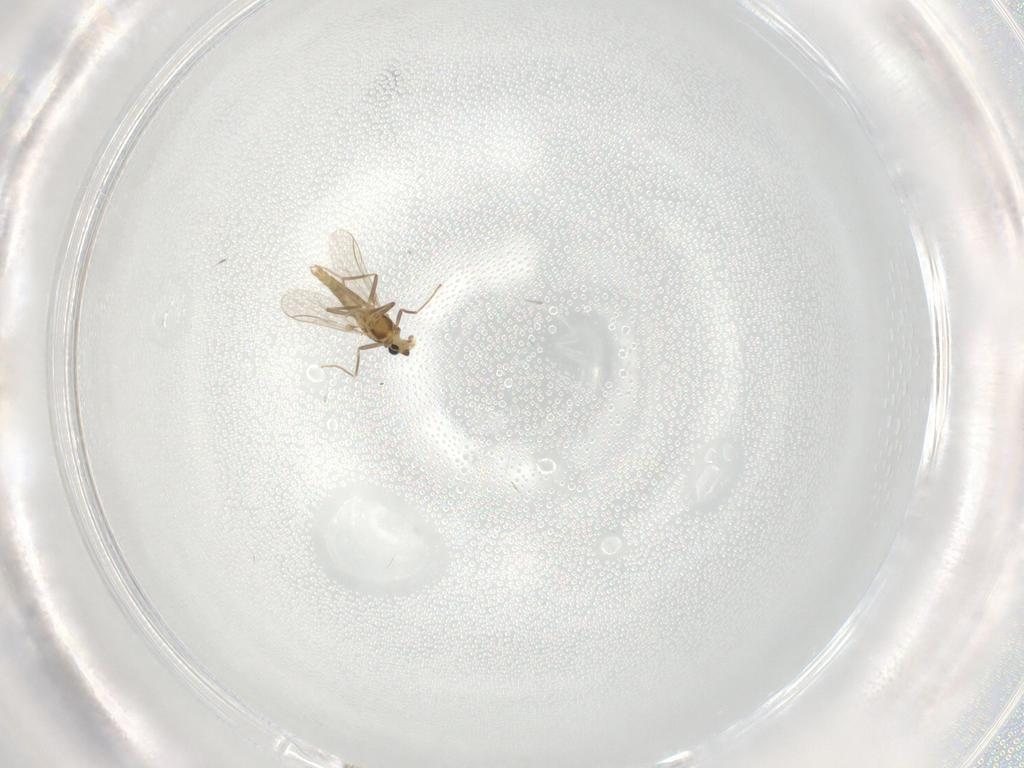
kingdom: Animalia
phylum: Arthropoda
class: Insecta
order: Diptera
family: Chironomidae
